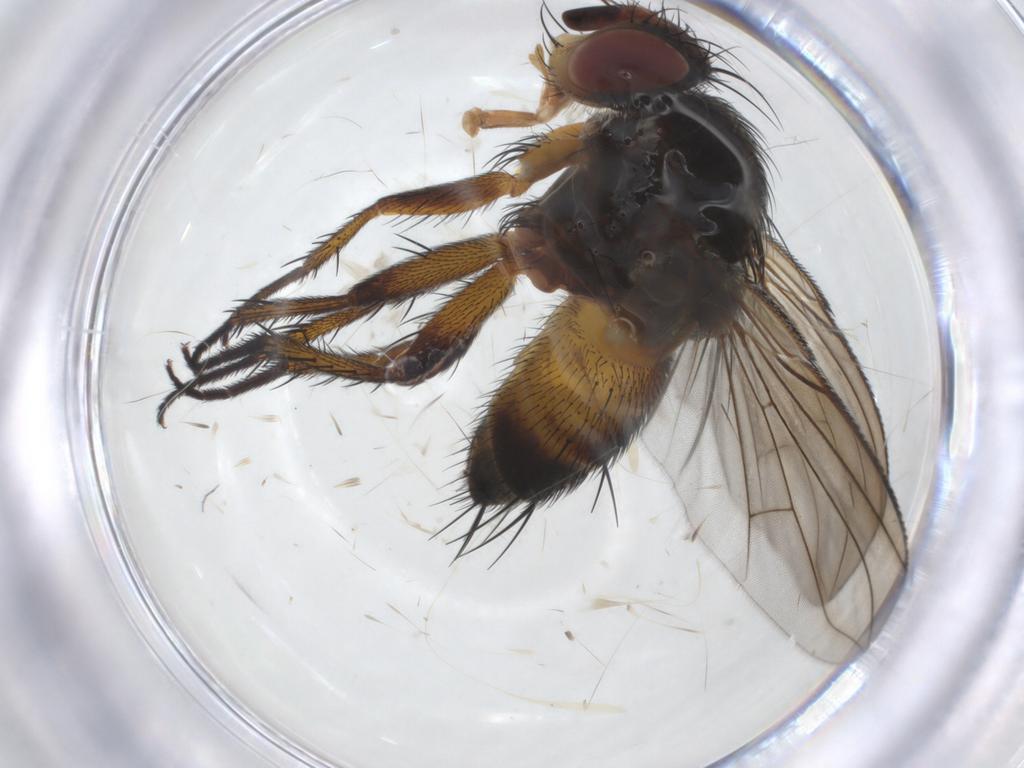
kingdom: Animalia
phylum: Arthropoda
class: Insecta
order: Diptera
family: Tachinidae
